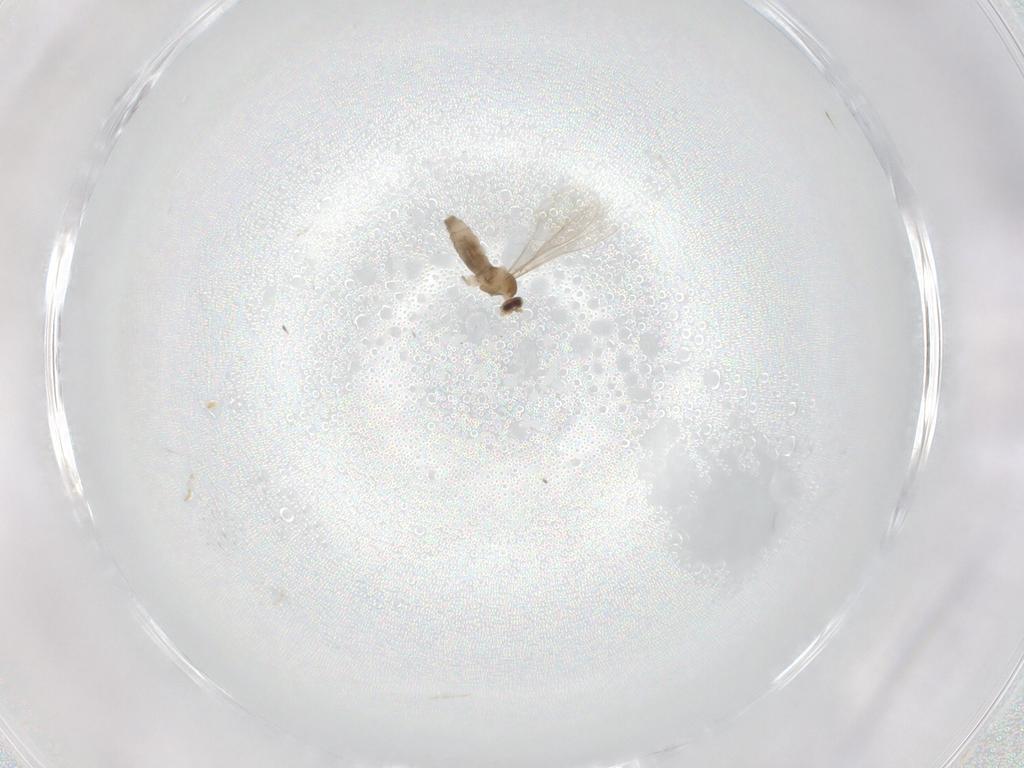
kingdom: Animalia
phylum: Arthropoda
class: Insecta
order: Diptera
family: Cecidomyiidae
